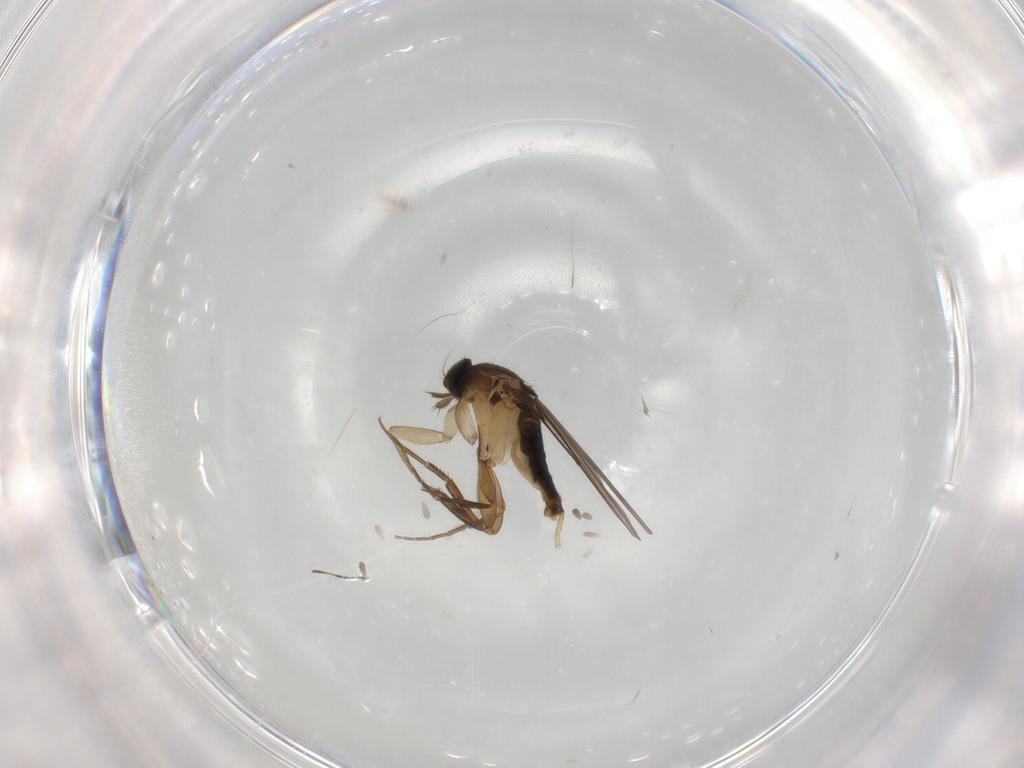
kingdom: Animalia
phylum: Arthropoda
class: Insecta
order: Diptera
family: Phoridae
